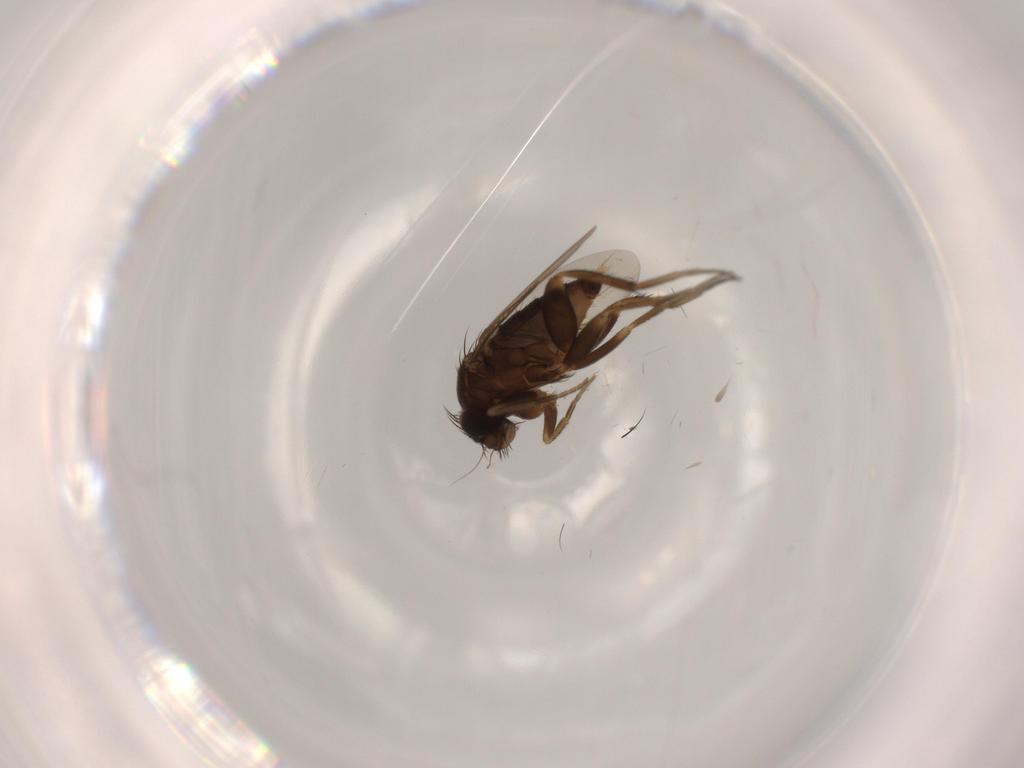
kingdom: Animalia
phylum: Arthropoda
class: Insecta
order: Diptera
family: Phoridae
